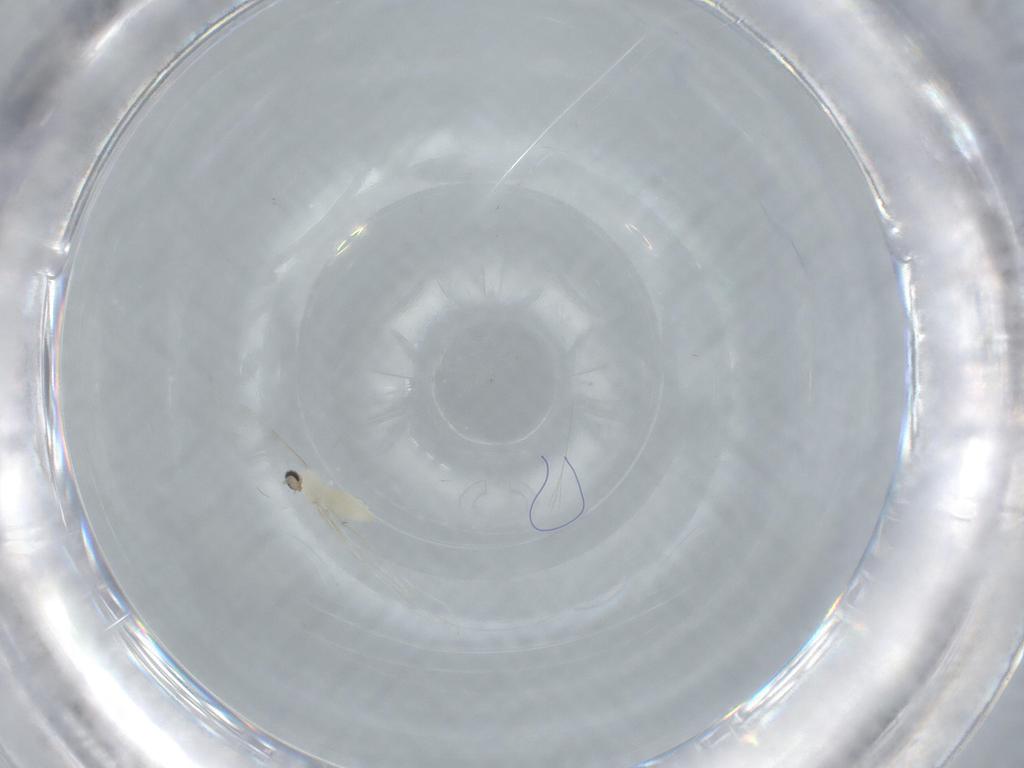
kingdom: Animalia
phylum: Arthropoda
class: Insecta
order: Diptera
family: Cecidomyiidae
